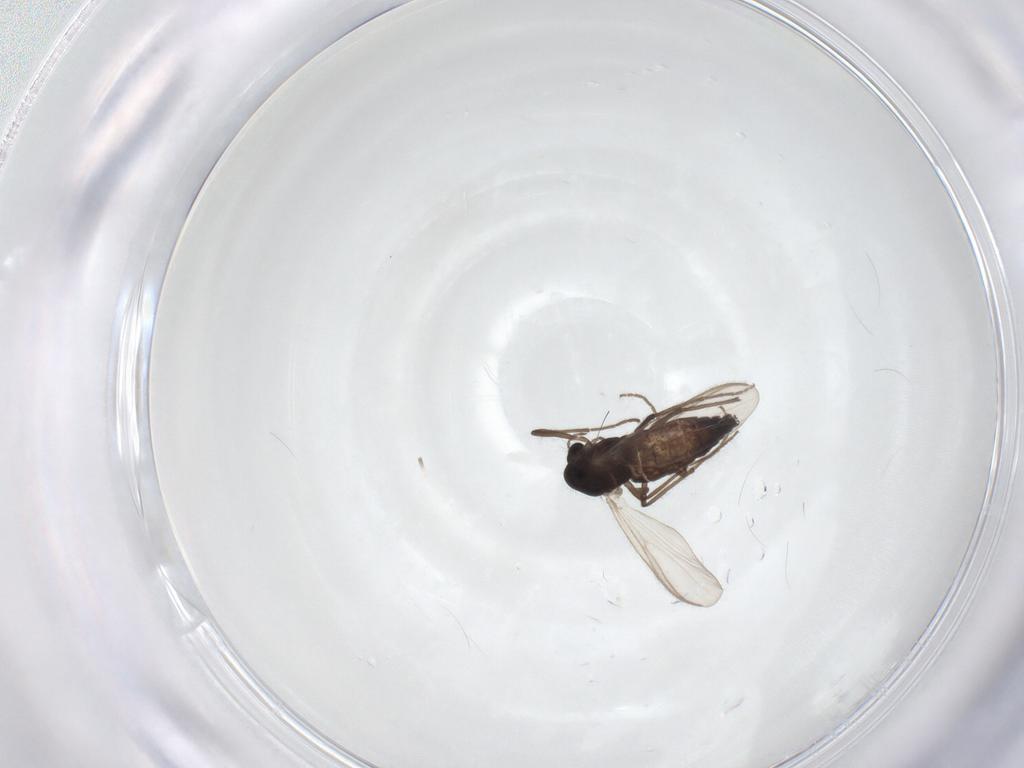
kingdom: Animalia
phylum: Arthropoda
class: Insecta
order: Diptera
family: Chironomidae
